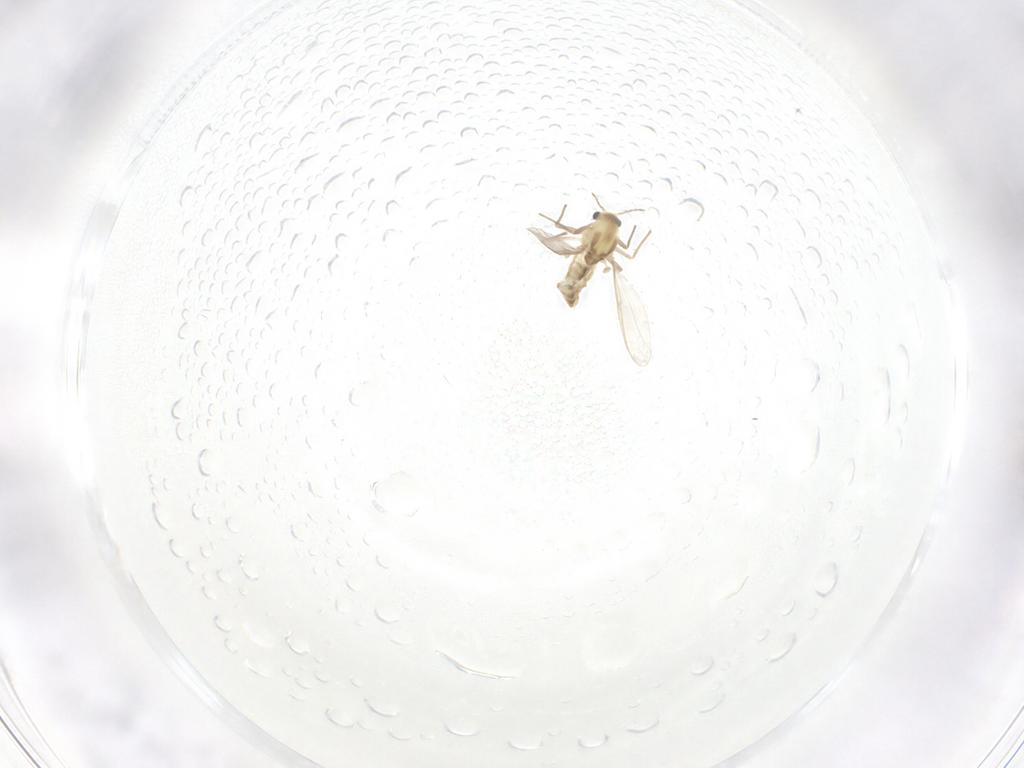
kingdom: Animalia
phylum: Arthropoda
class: Insecta
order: Diptera
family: Chironomidae
